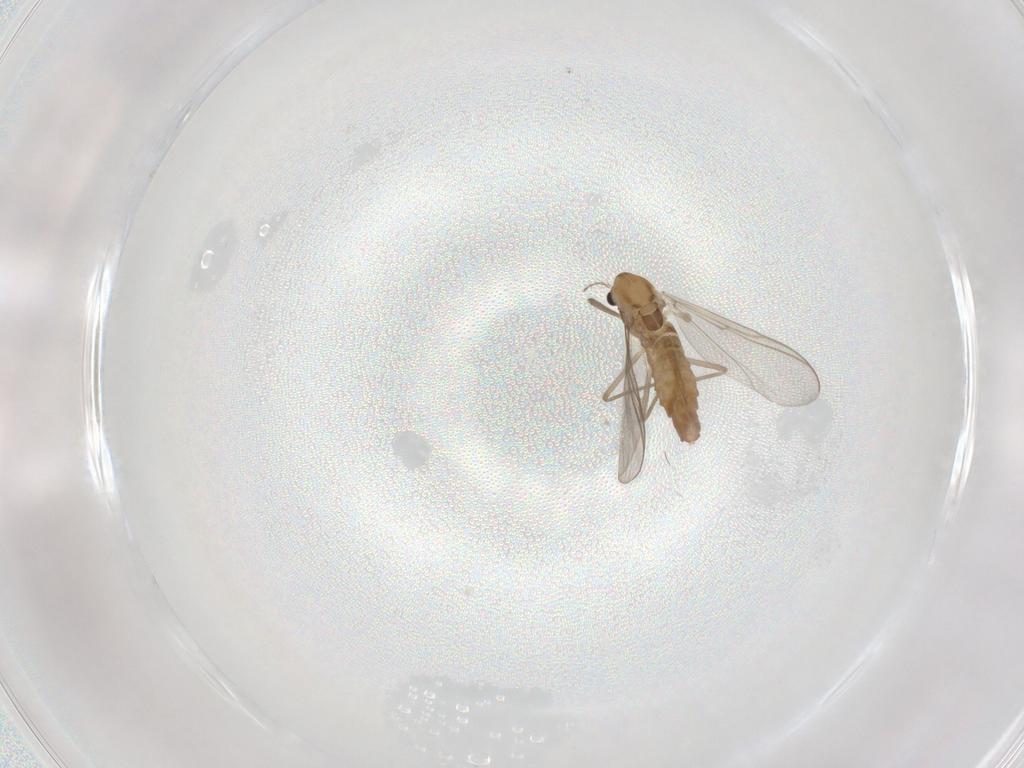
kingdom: Animalia
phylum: Arthropoda
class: Insecta
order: Diptera
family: Chironomidae
